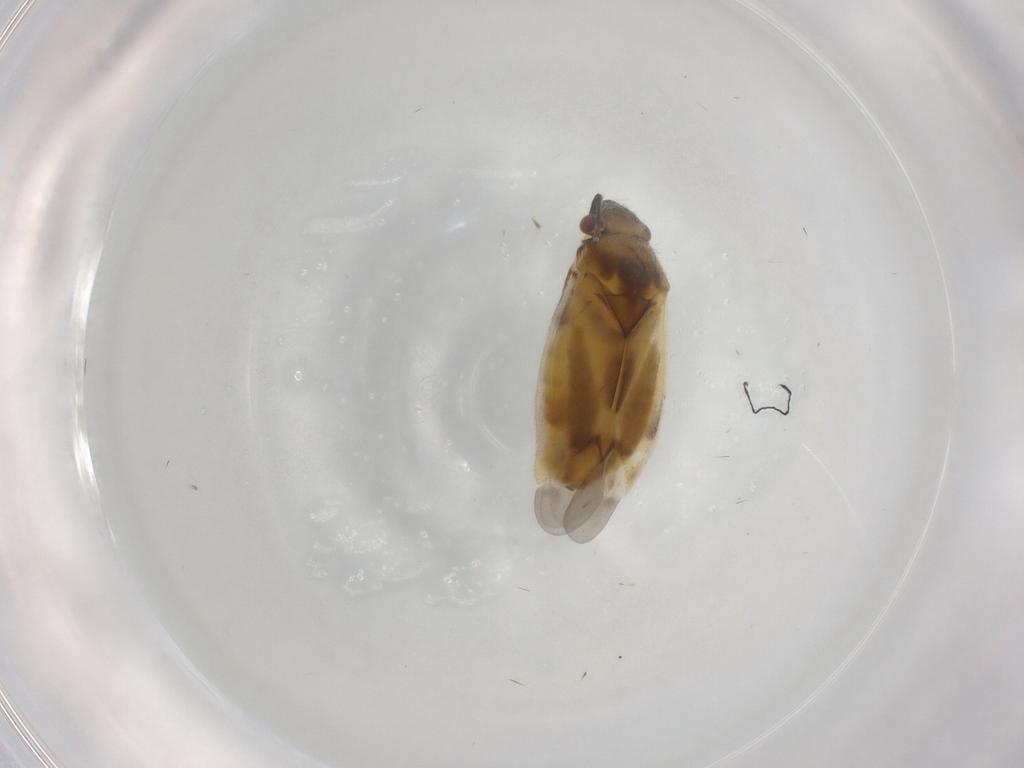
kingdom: Animalia
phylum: Arthropoda
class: Insecta
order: Hemiptera
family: Miridae
